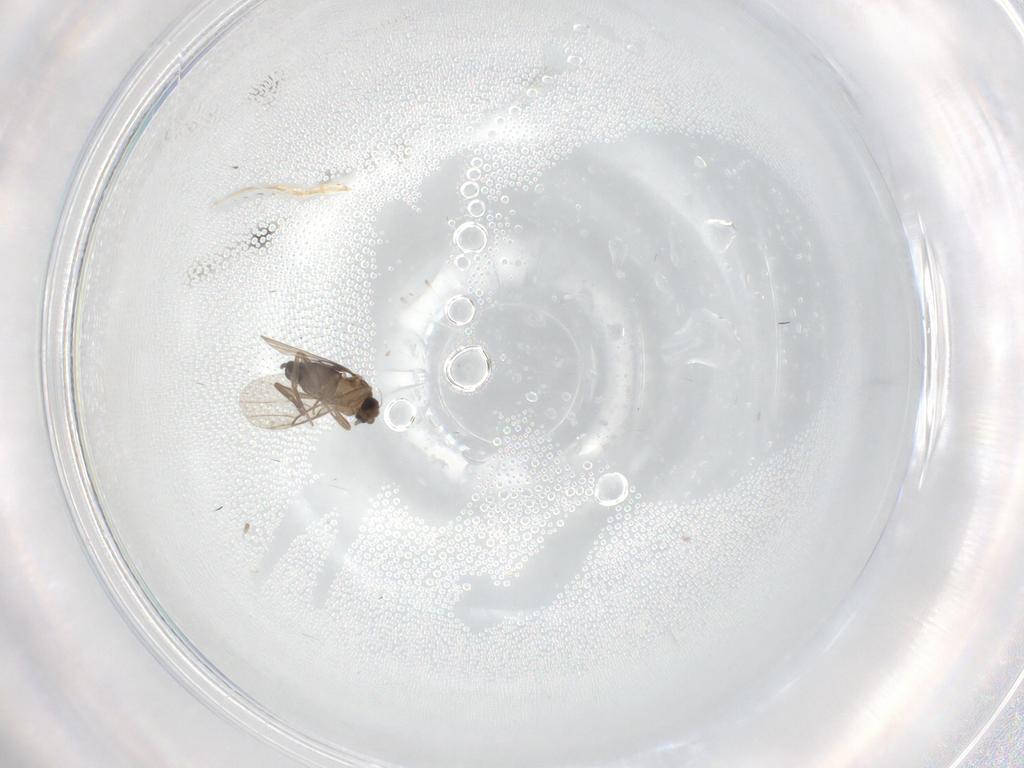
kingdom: Animalia
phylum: Arthropoda
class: Insecta
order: Diptera
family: Phoridae
